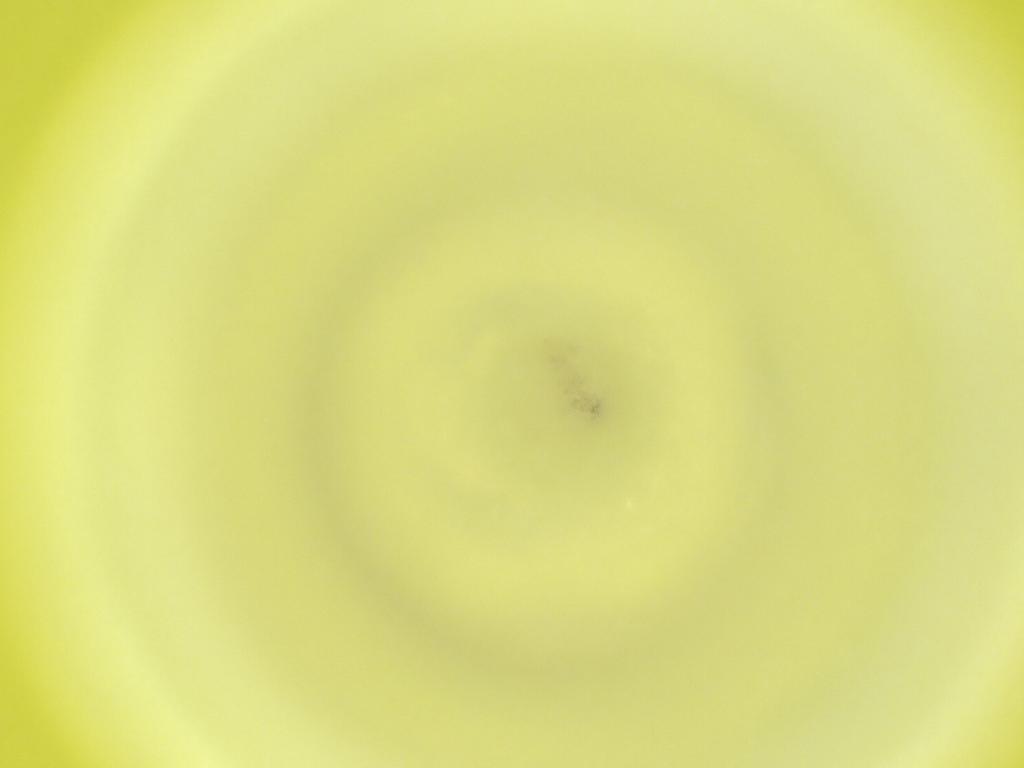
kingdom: Animalia
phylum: Arthropoda
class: Insecta
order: Diptera
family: Cecidomyiidae
